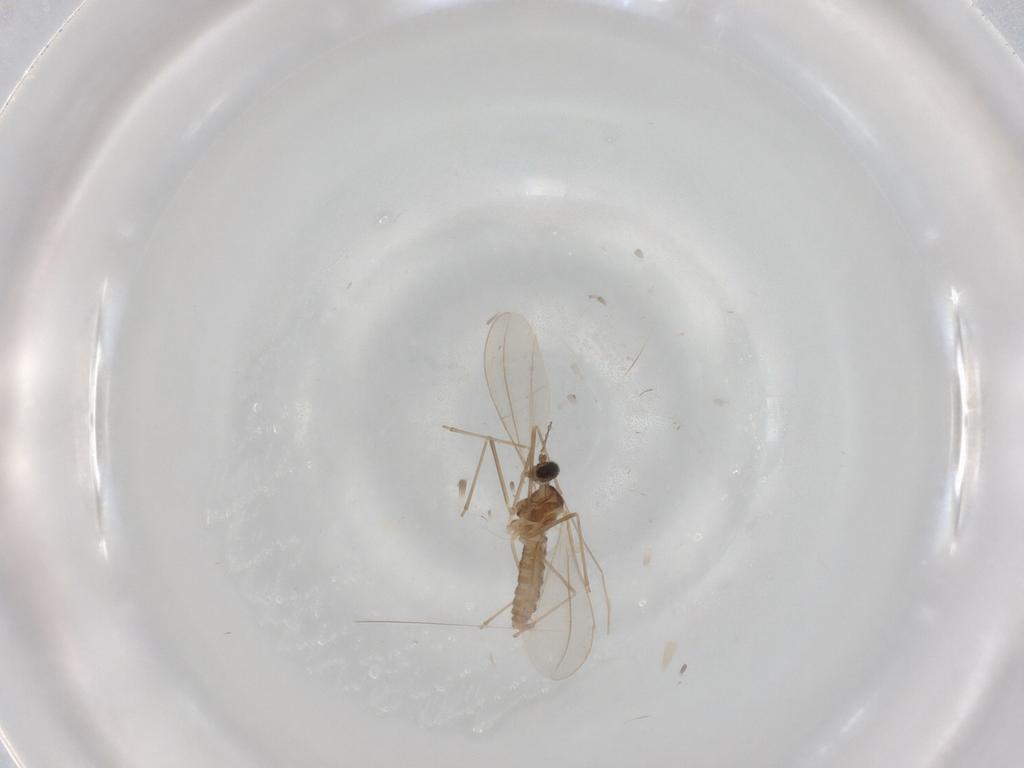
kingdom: Animalia
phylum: Arthropoda
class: Insecta
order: Diptera
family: Cecidomyiidae
